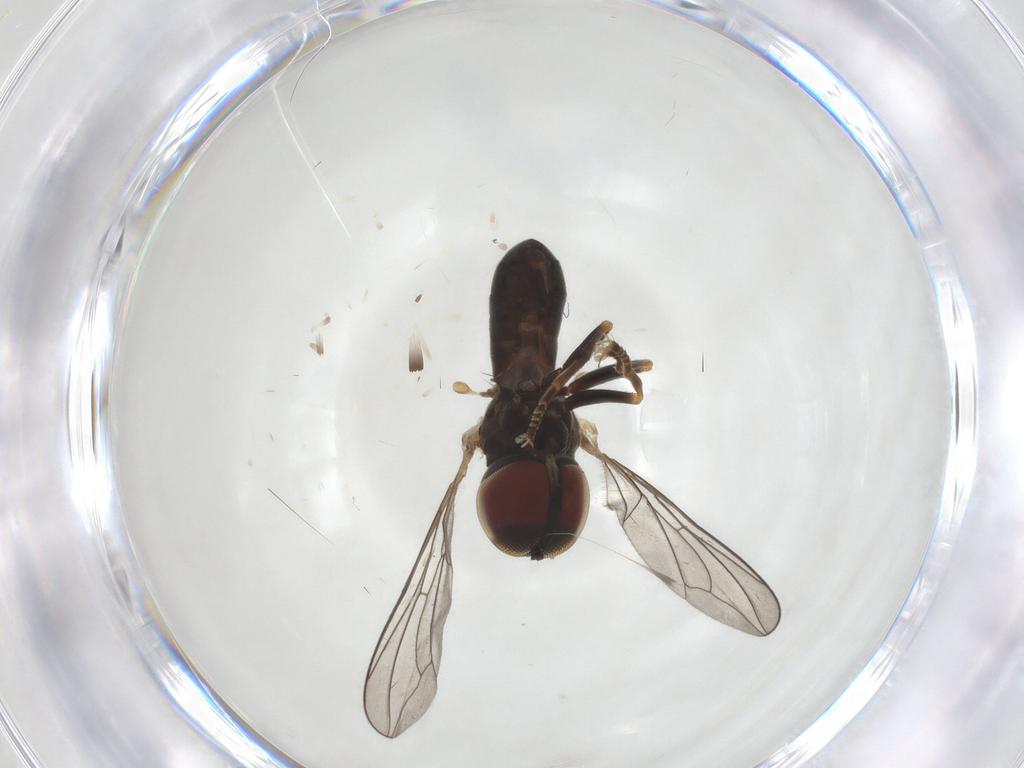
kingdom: Animalia
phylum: Arthropoda
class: Insecta
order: Diptera
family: Pipunculidae
